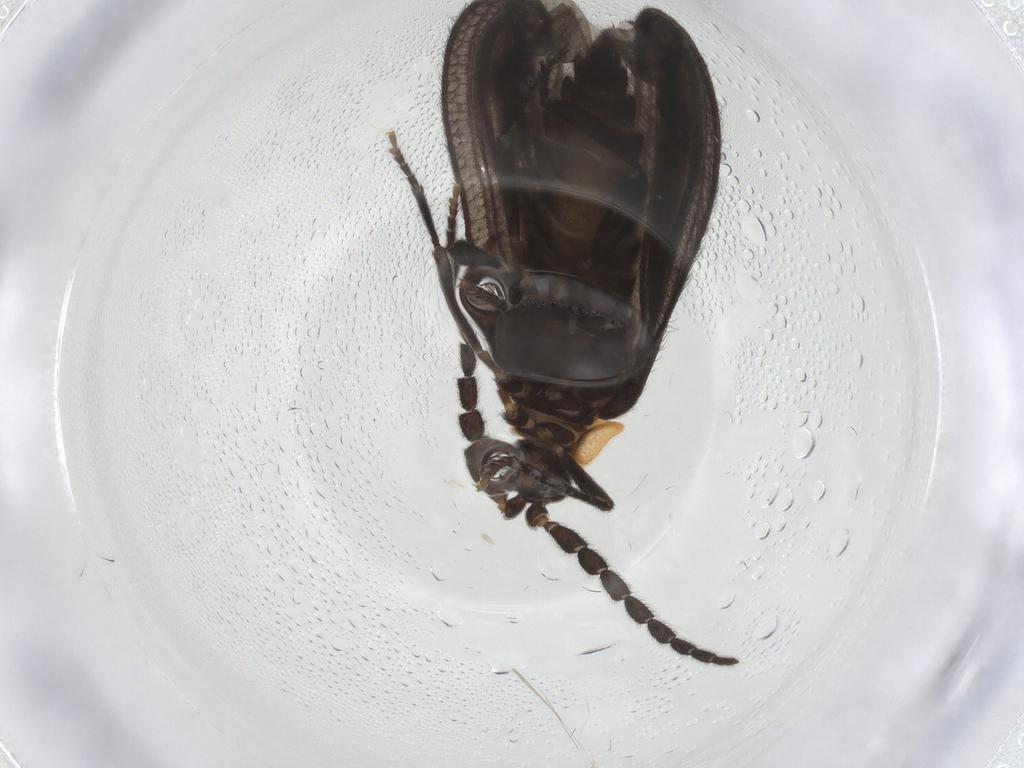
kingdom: Animalia
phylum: Arthropoda
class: Insecta
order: Coleoptera
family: Lycidae
